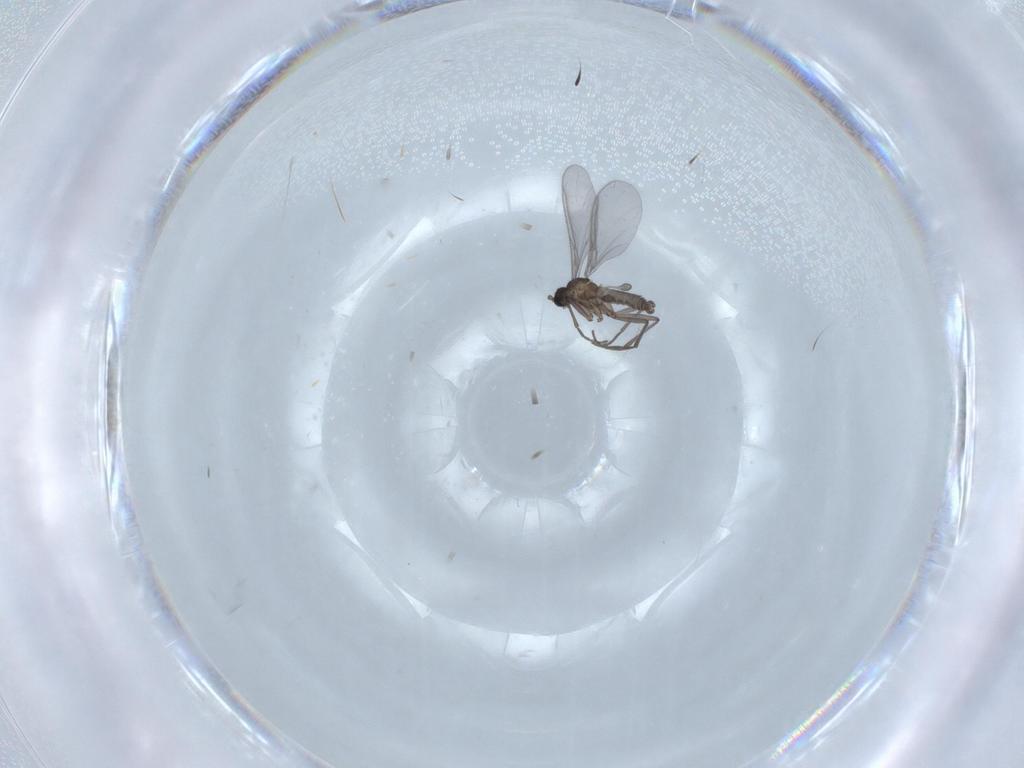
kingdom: Animalia
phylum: Arthropoda
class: Insecta
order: Diptera
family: Sciaridae
